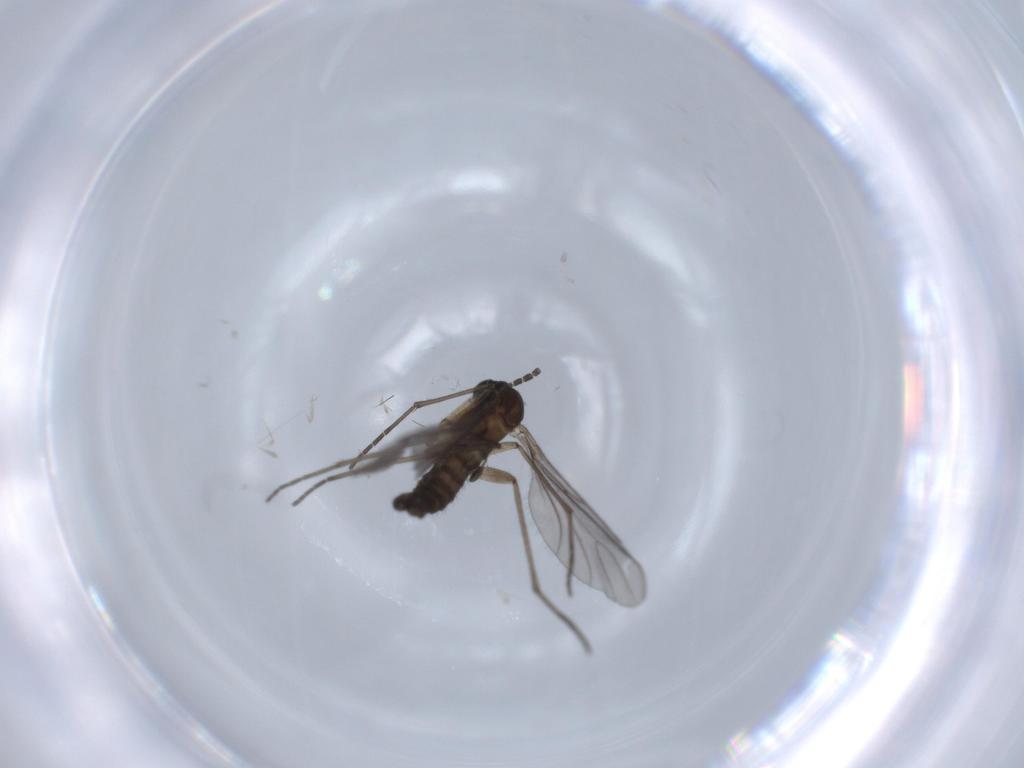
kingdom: Animalia
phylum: Arthropoda
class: Insecta
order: Diptera
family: Sciaridae
